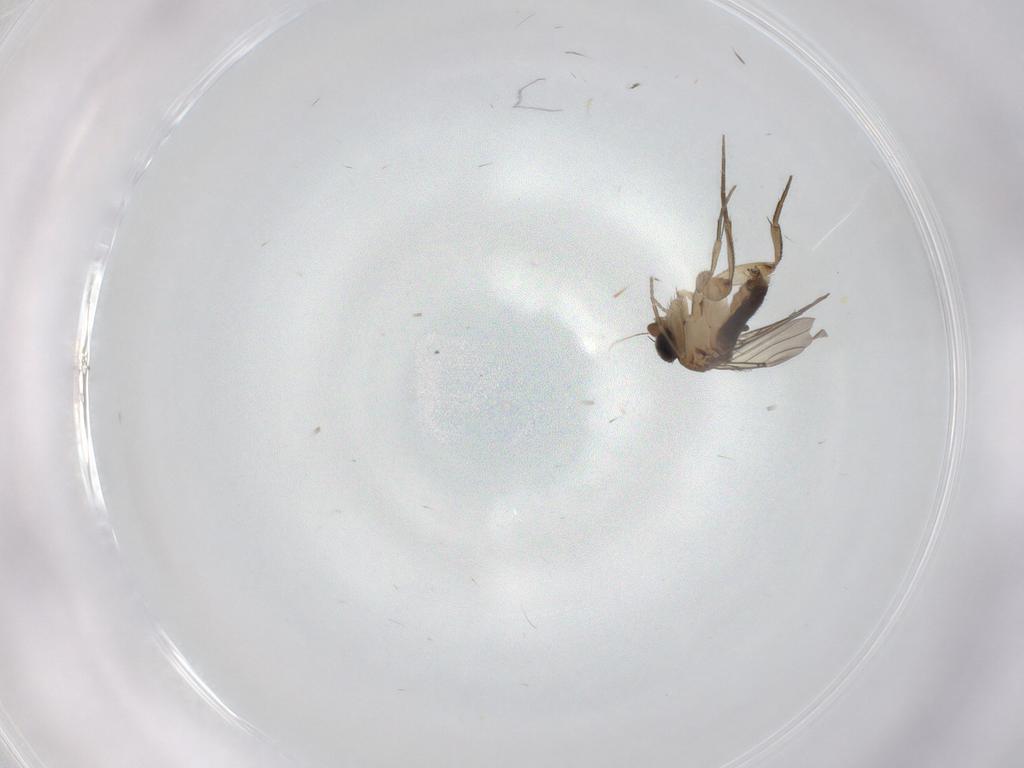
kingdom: Animalia
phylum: Arthropoda
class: Insecta
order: Diptera
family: Phoridae
